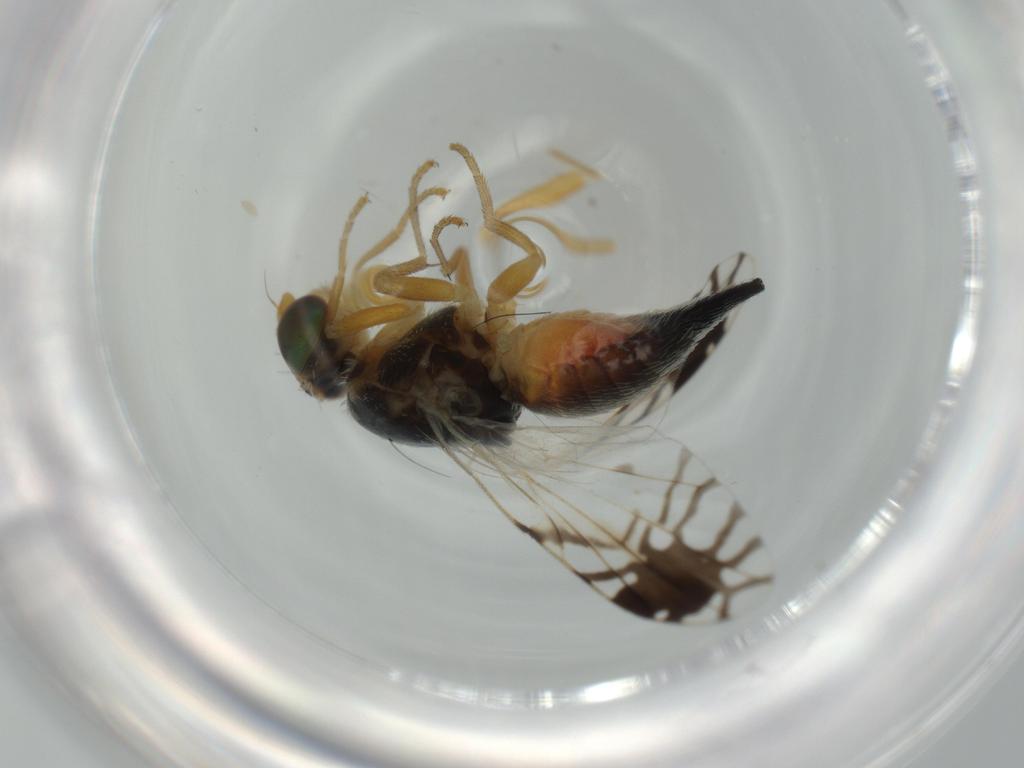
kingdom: Animalia
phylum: Arthropoda
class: Insecta
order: Diptera
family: Tephritidae
